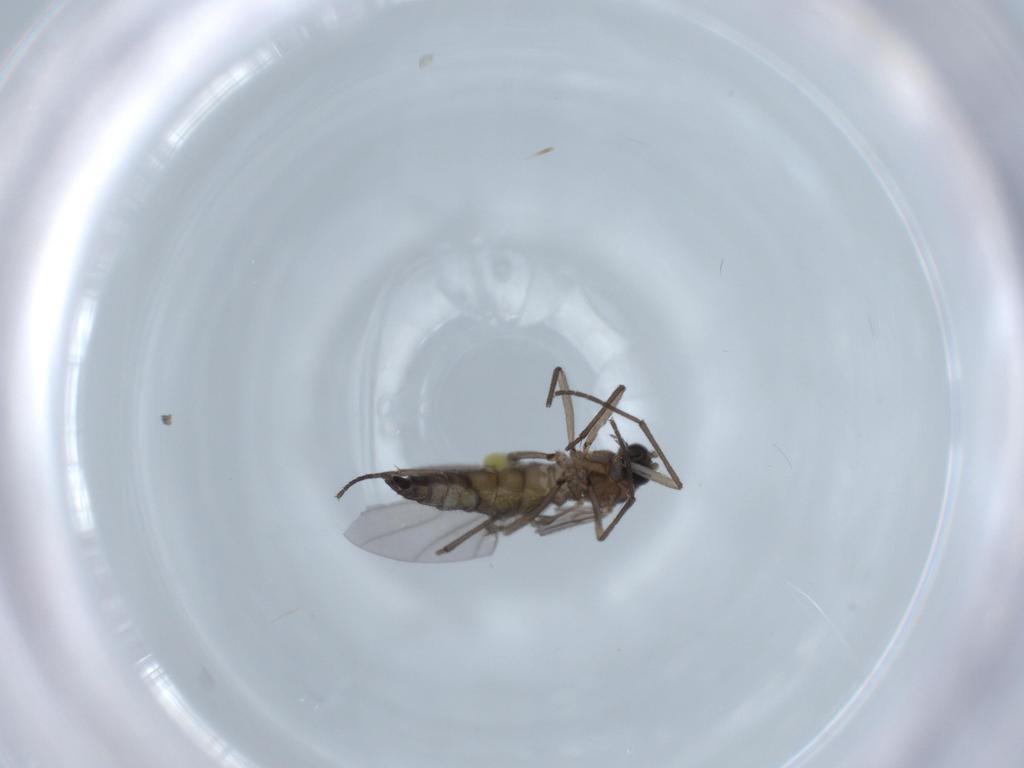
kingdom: Animalia
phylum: Arthropoda
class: Insecta
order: Diptera
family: Sciaridae
